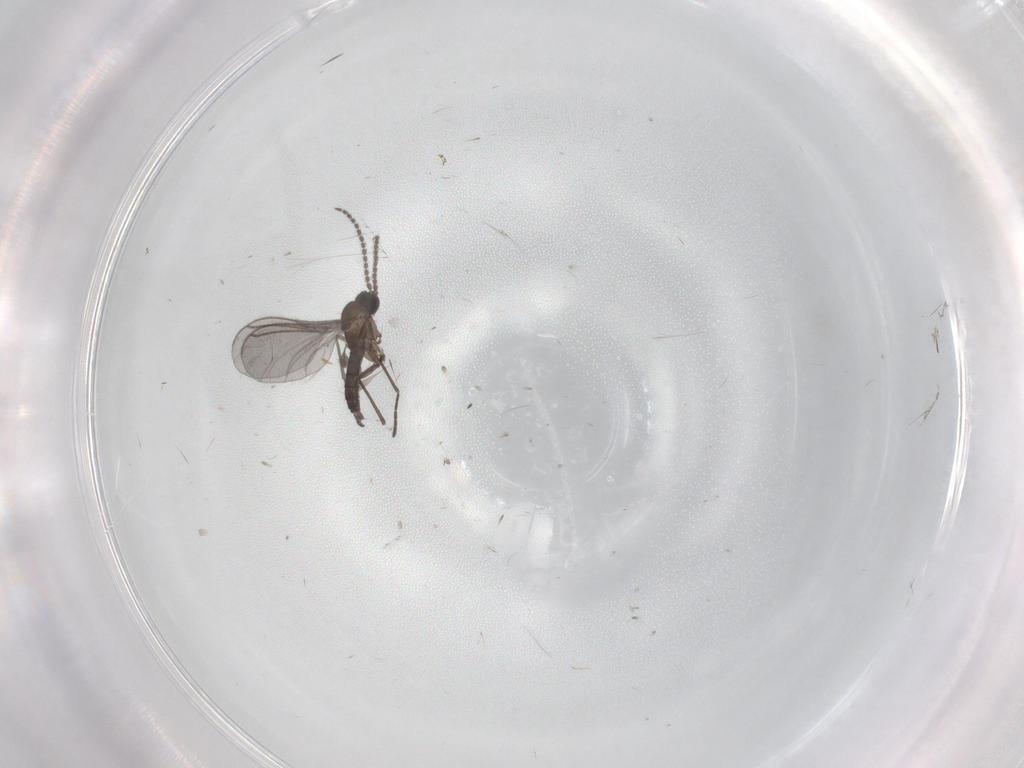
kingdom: Animalia
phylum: Arthropoda
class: Insecta
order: Diptera
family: Cecidomyiidae
